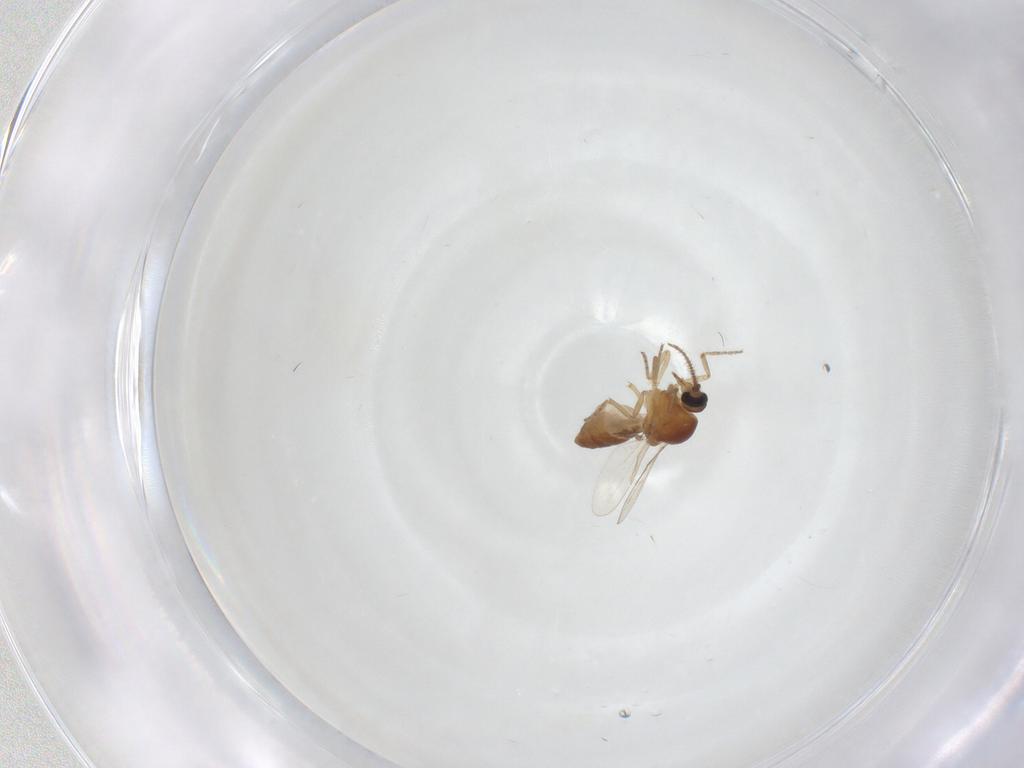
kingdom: Animalia
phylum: Arthropoda
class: Insecta
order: Diptera
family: Ceratopogonidae
